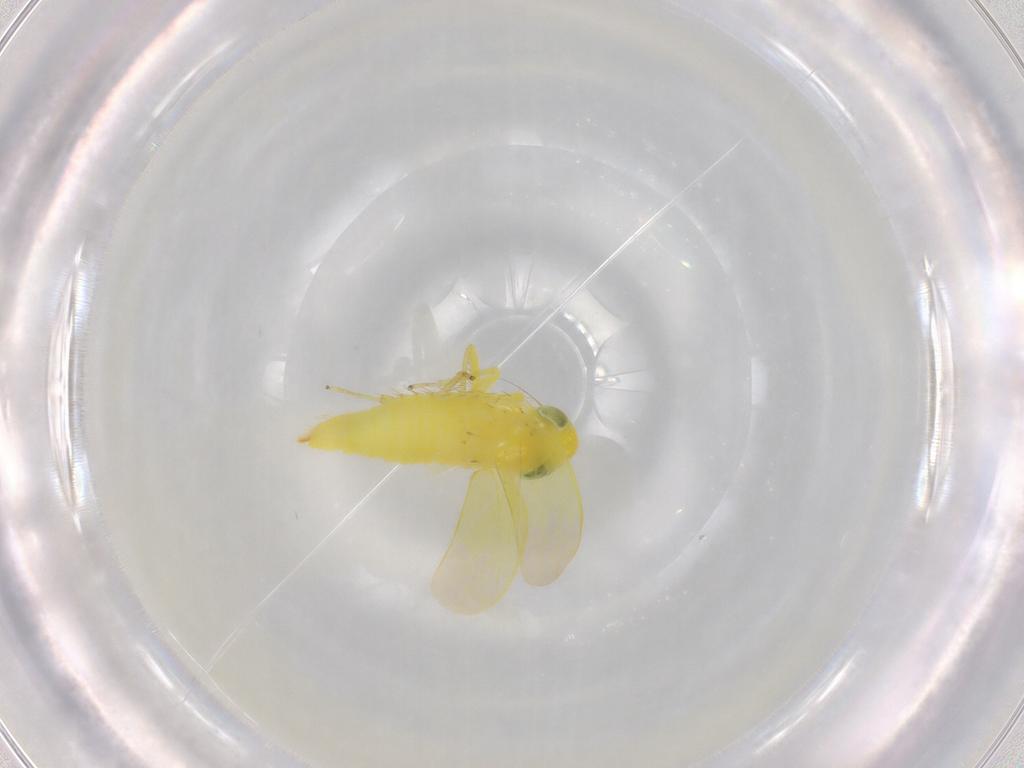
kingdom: Animalia
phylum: Arthropoda
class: Insecta
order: Hemiptera
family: Cicadellidae
